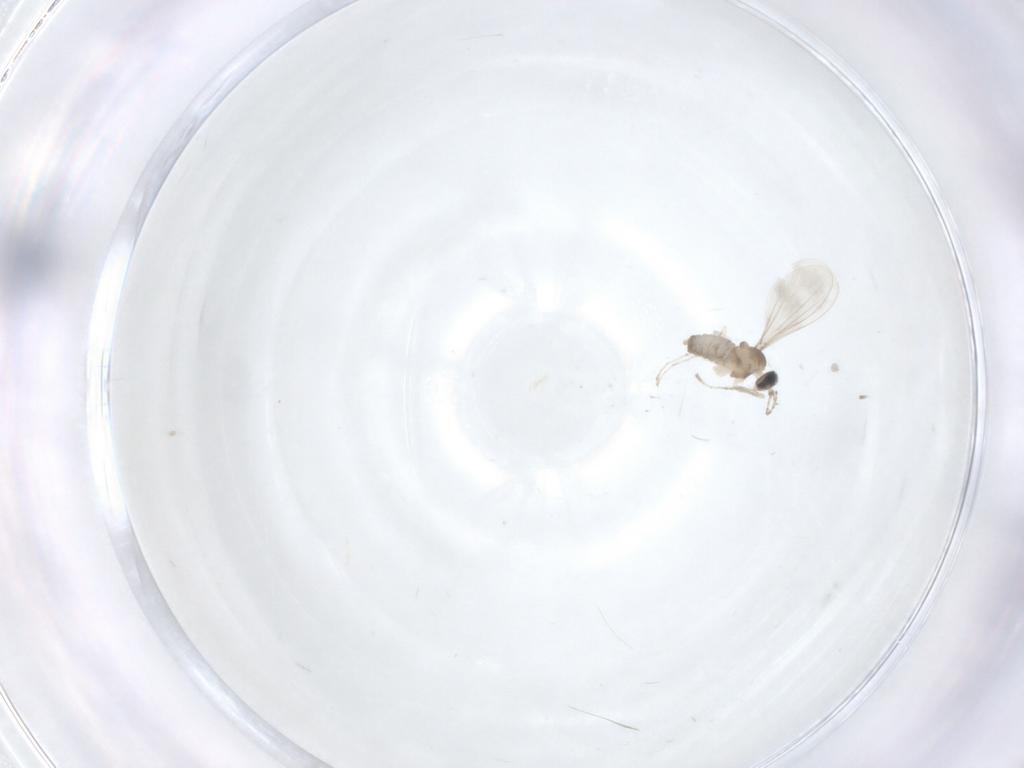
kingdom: Animalia
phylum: Arthropoda
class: Insecta
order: Diptera
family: Cecidomyiidae
